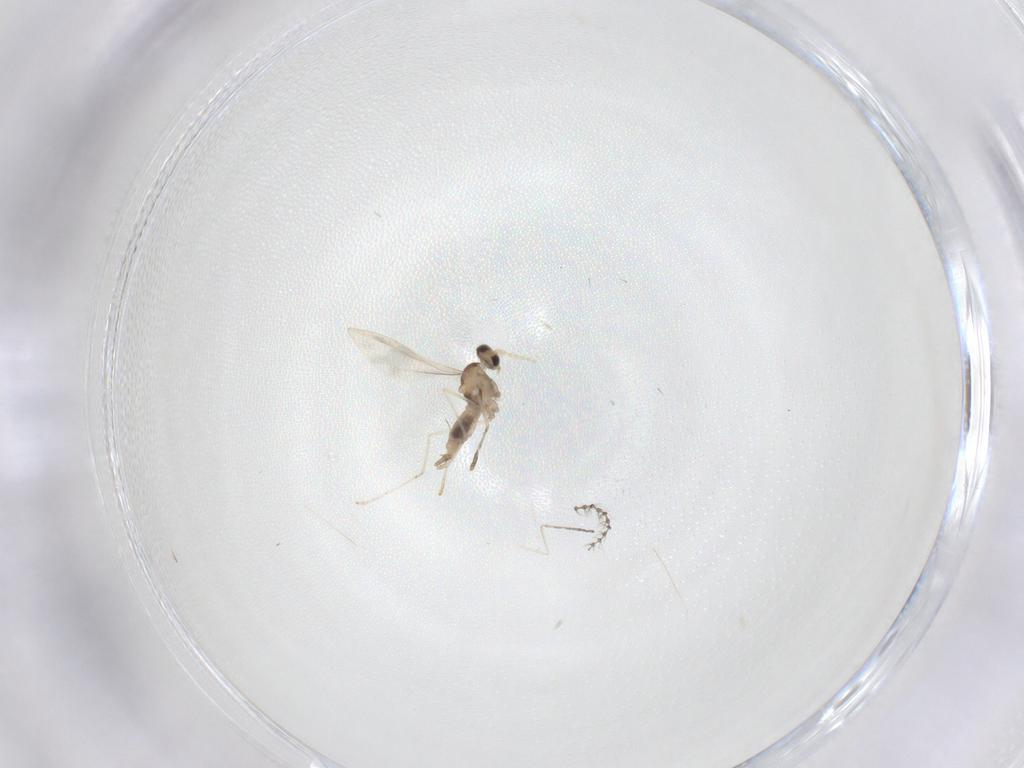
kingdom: Animalia
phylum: Arthropoda
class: Insecta
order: Diptera
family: Cecidomyiidae
